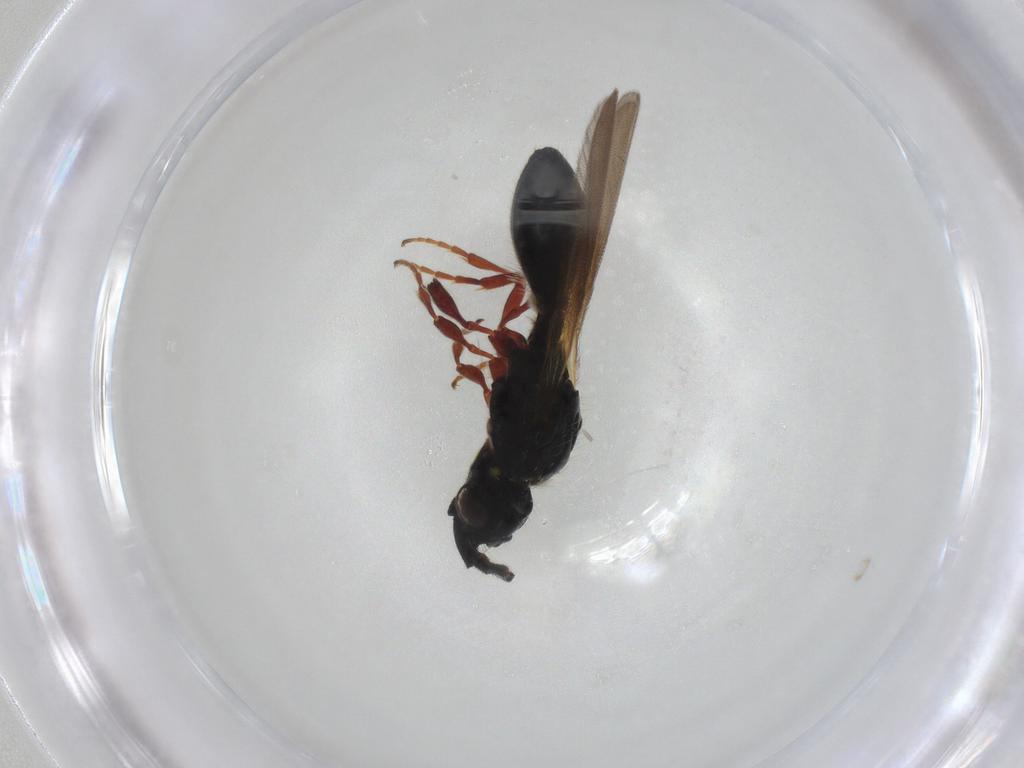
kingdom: Animalia
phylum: Arthropoda
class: Insecta
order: Hymenoptera
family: Diapriidae
